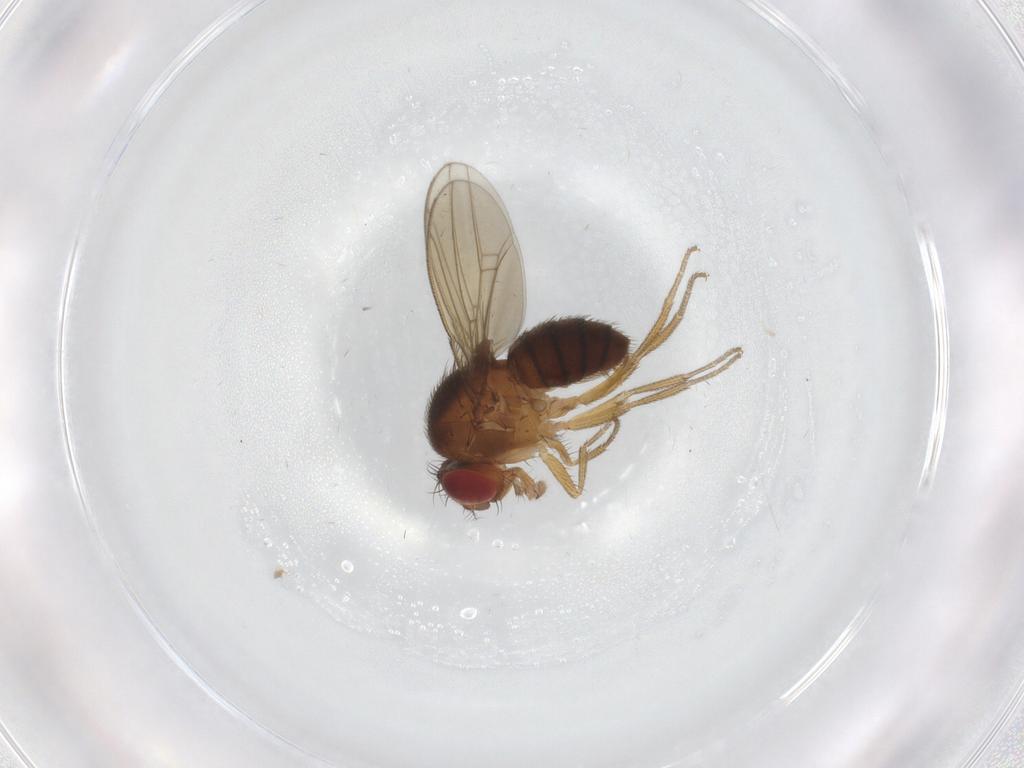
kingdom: Animalia
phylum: Arthropoda
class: Insecta
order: Diptera
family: Drosophilidae
